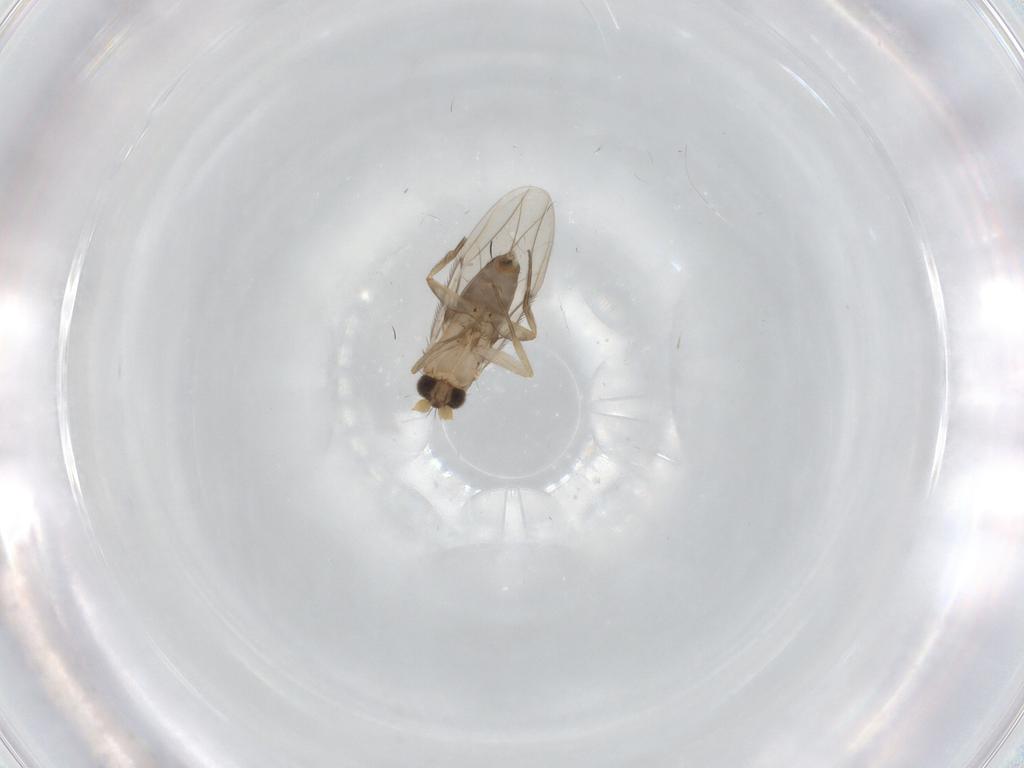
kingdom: Animalia
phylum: Arthropoda
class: Insecta
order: Diptera
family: Phoridae
